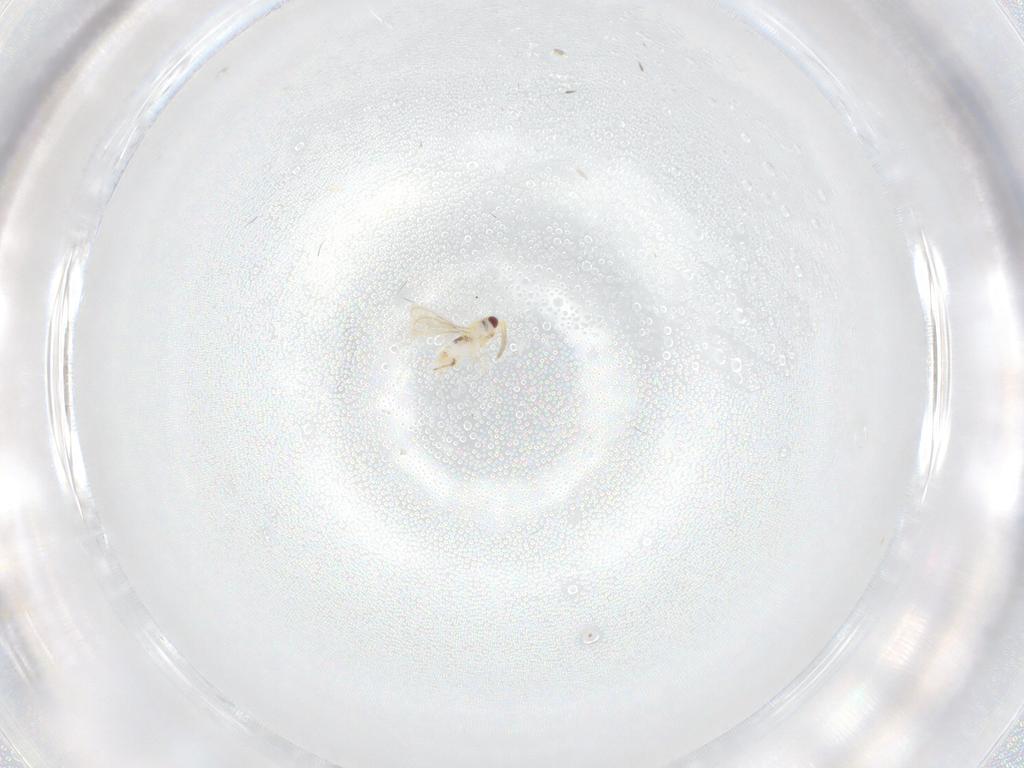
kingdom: Animalia
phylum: Arthropoda
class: Insecta
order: Hymenoptera
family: Aphelinidae
